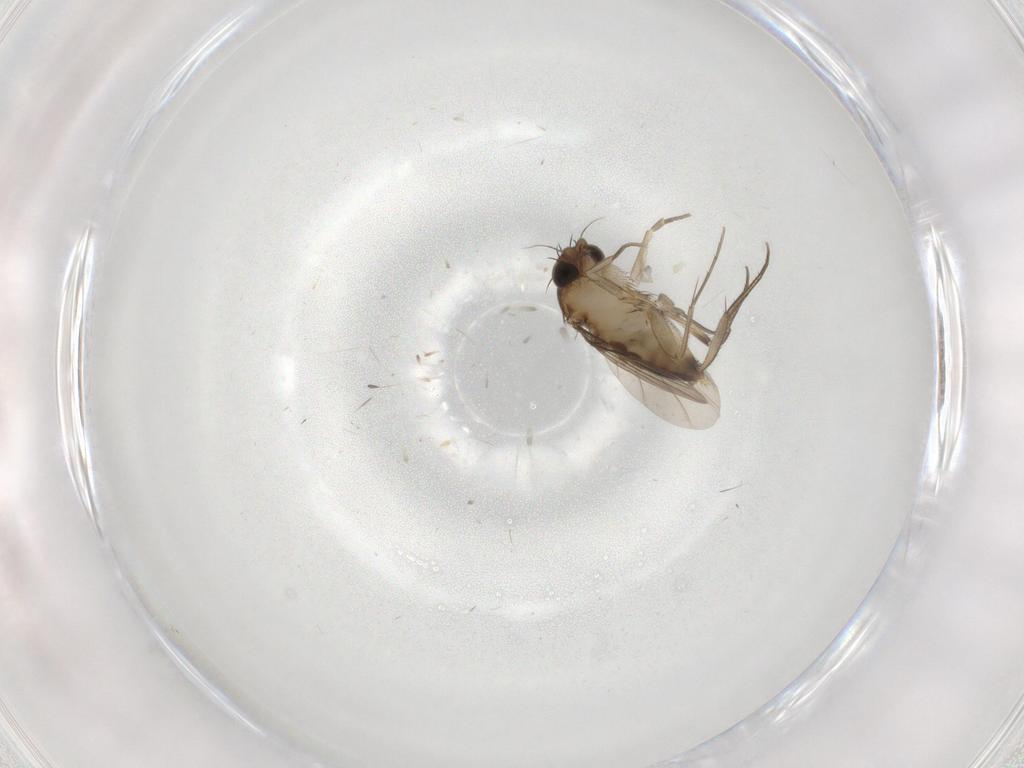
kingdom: Animalia
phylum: Arthropoda
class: Insecta
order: Diptera
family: Phoridae
